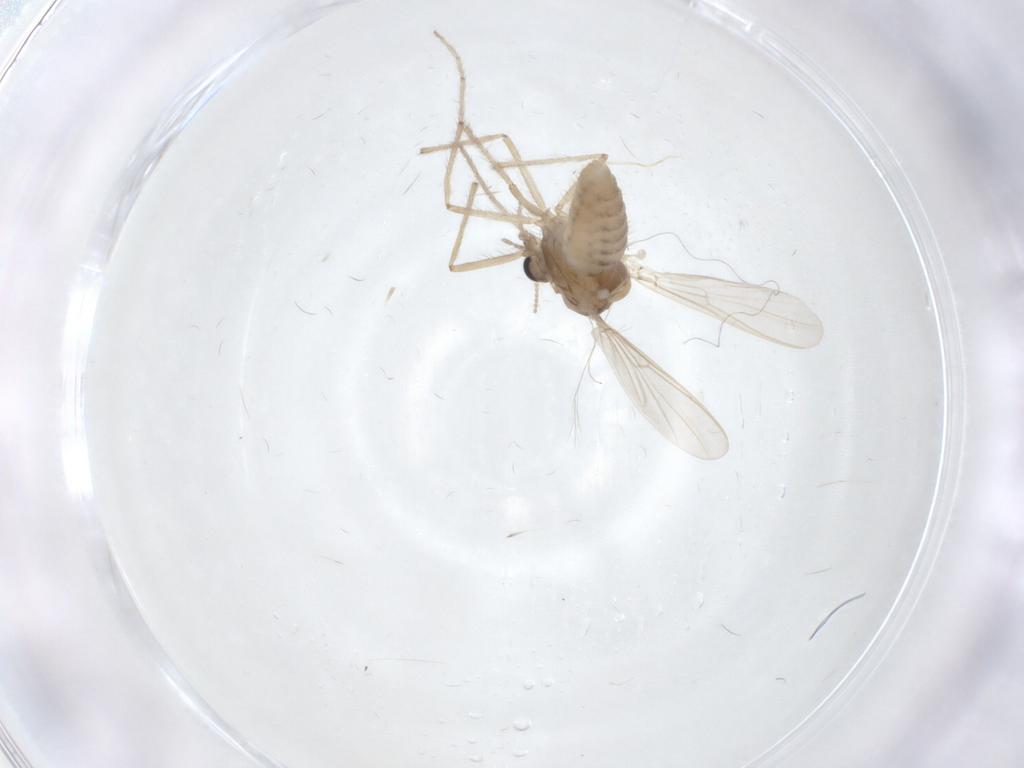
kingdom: Animalia
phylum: Arthropoda
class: Insecta
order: Diptera
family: Chironomidae
